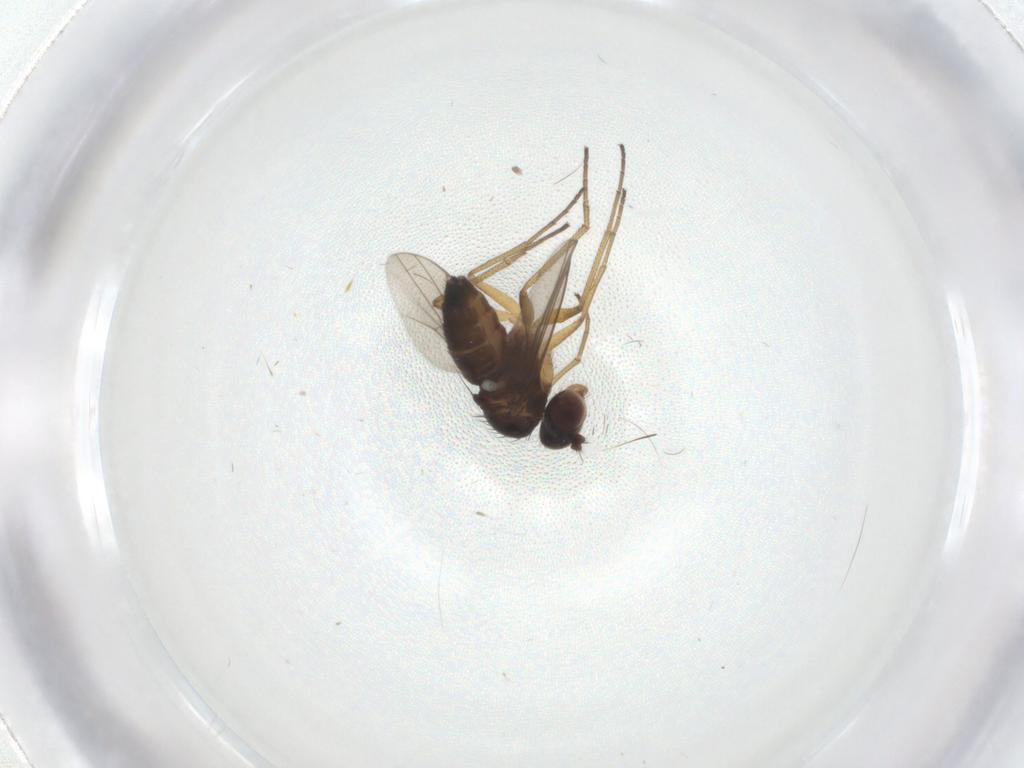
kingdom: Animalia
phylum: Arthropoda
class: Insecta
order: Diptera
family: Dolichopodidae
